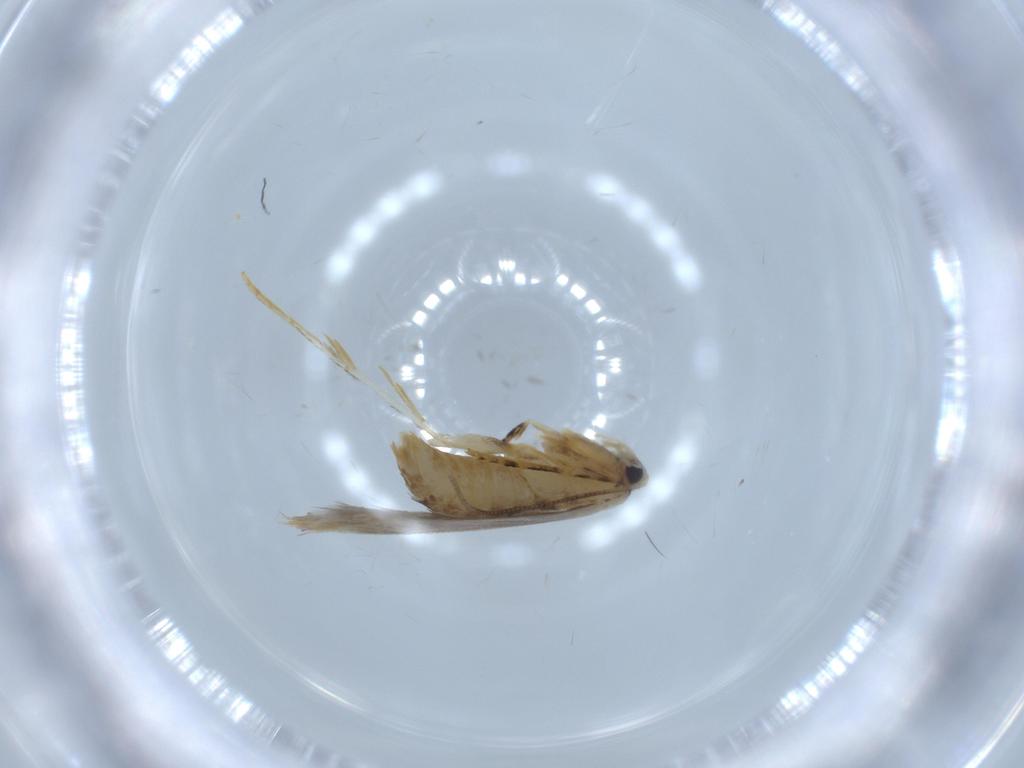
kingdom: Animalia
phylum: Arthropoda
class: Insecta
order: Lepidoptera
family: Tineidae
